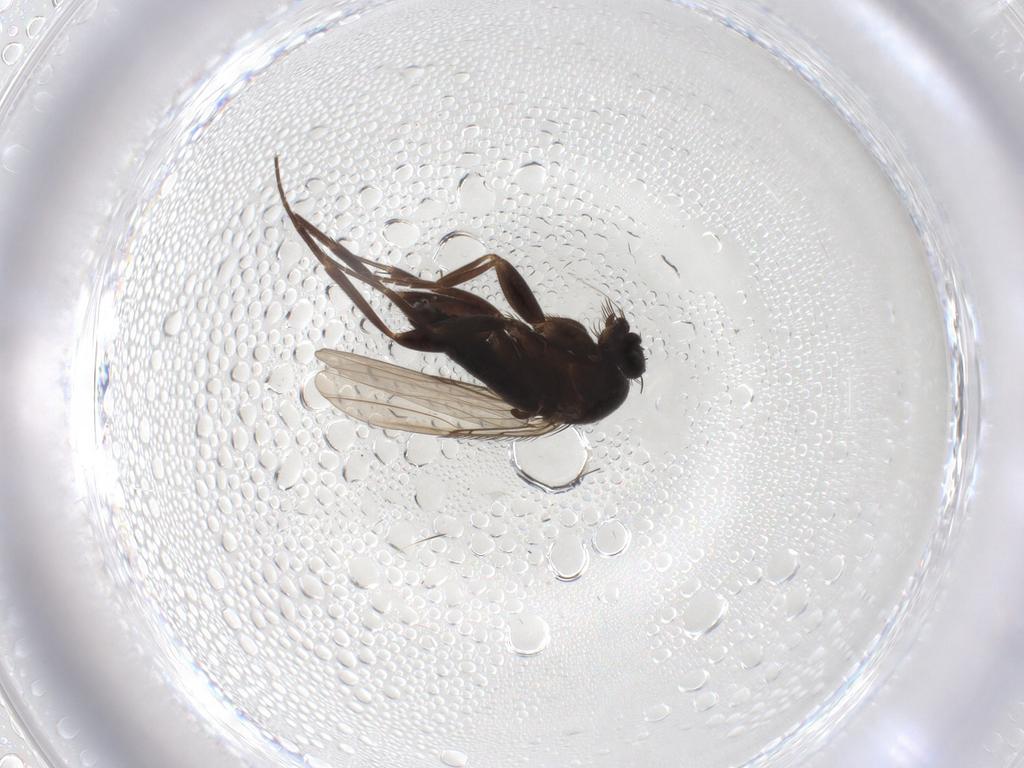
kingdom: Animalia
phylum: Arthropoda
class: Insecta
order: Diptera
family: Phoridae
